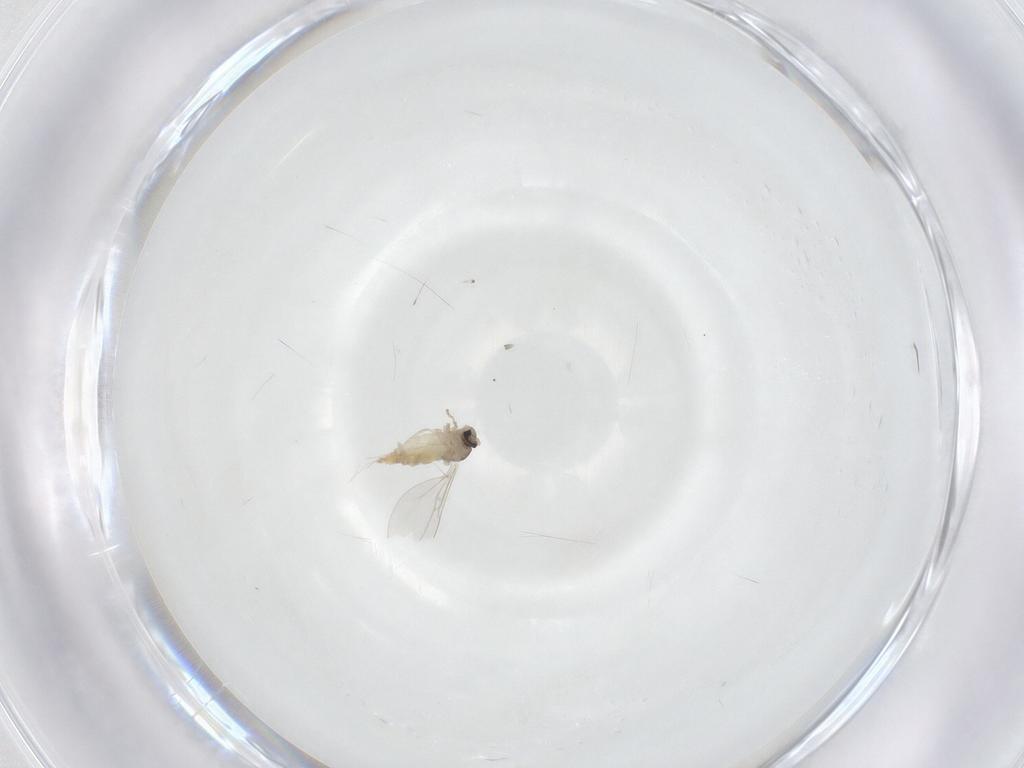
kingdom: Animalia
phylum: Arthropoda
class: Insecta
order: Diptera
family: Cecidomyiidae
